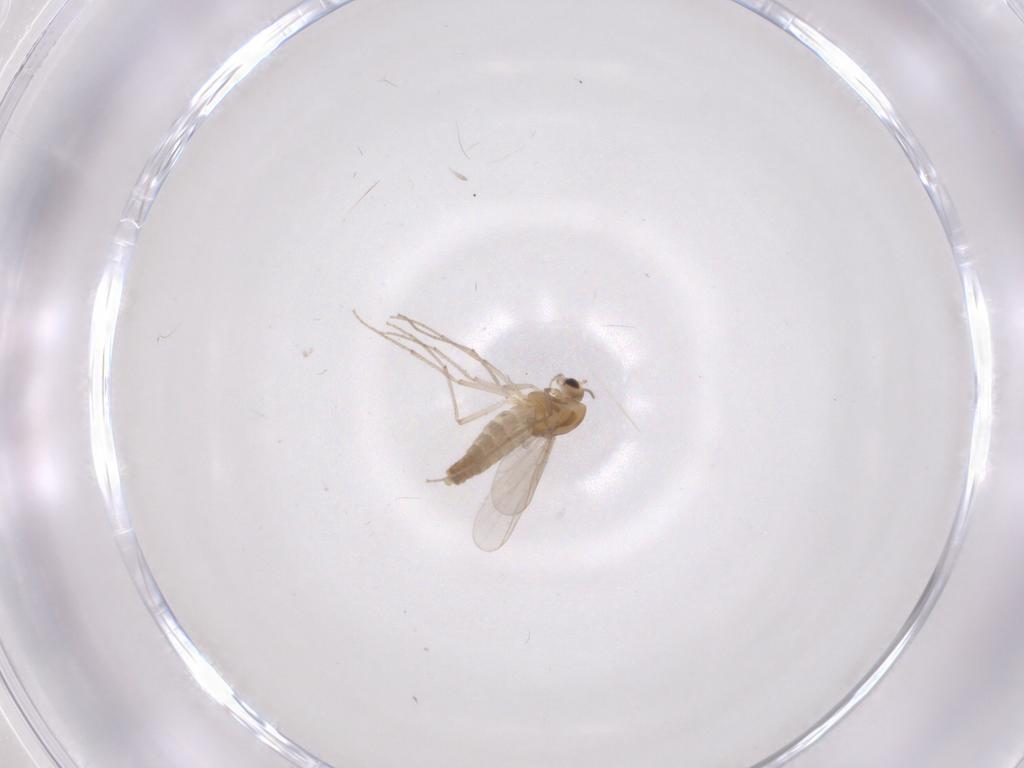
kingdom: Animalia
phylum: Arthropoda
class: Insecta
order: Diptera
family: Chironomidae
